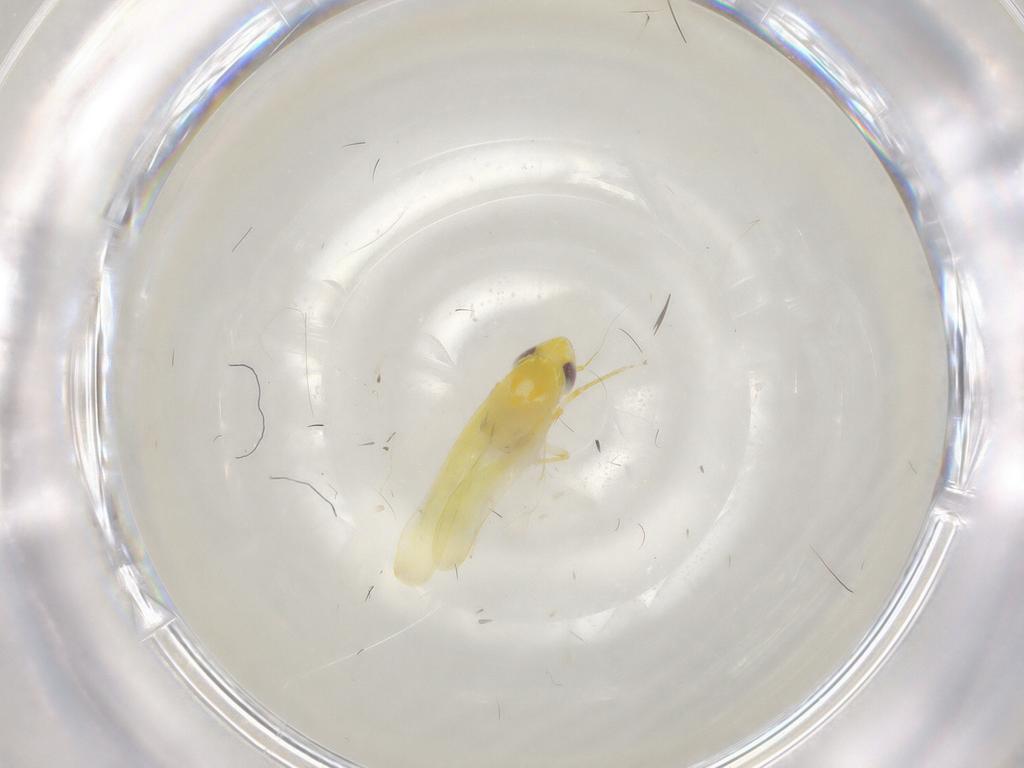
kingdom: Animalia
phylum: Arthropoda
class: Insecta
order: Hemiptera
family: Cicadellidae
